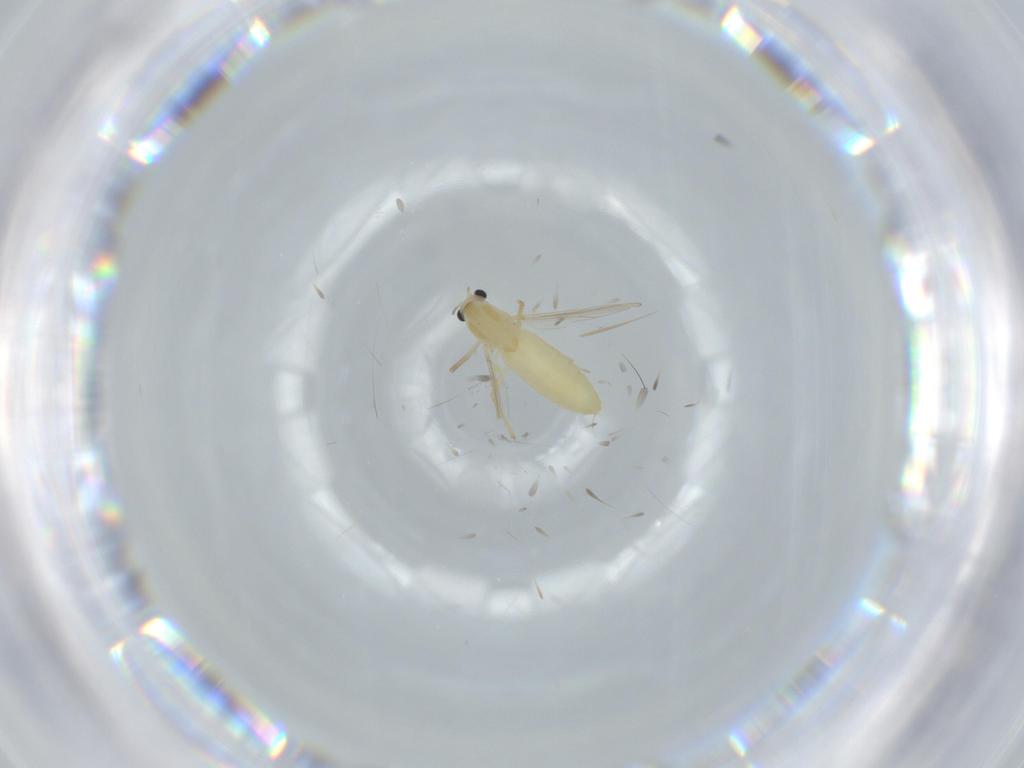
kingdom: Animalia
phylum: Arthropoda
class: Insecta
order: Diptera
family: Chironomidae
